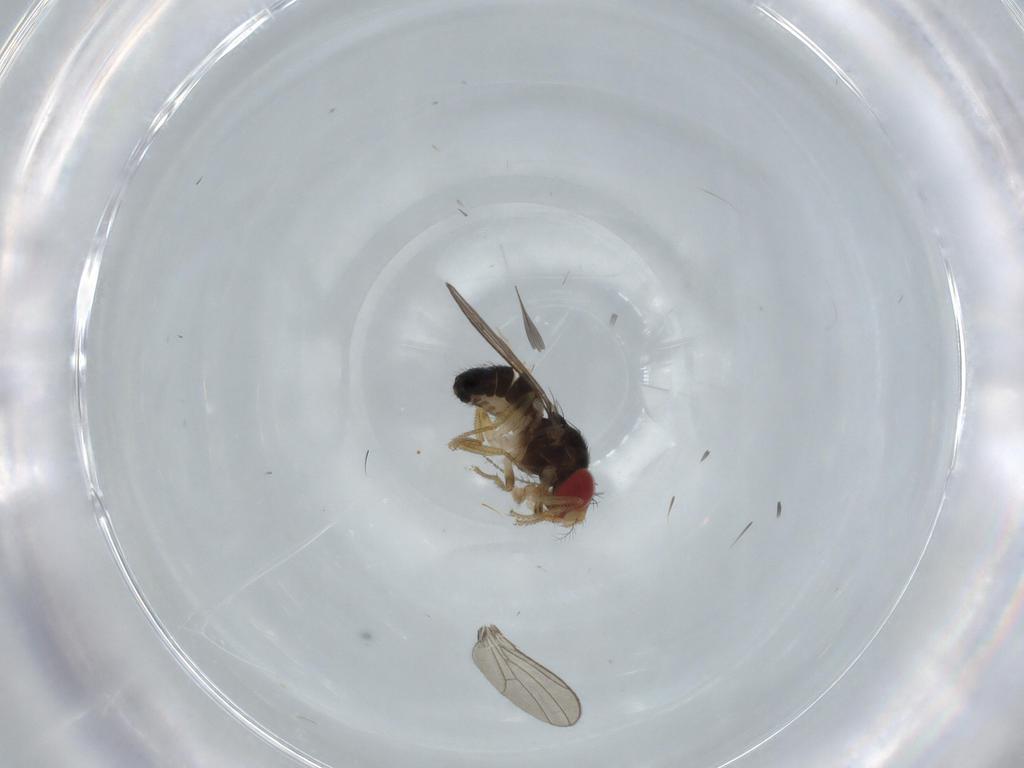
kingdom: Animalia
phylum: Arthropoda
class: Insecta
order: Diptera
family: Drosophilidae
